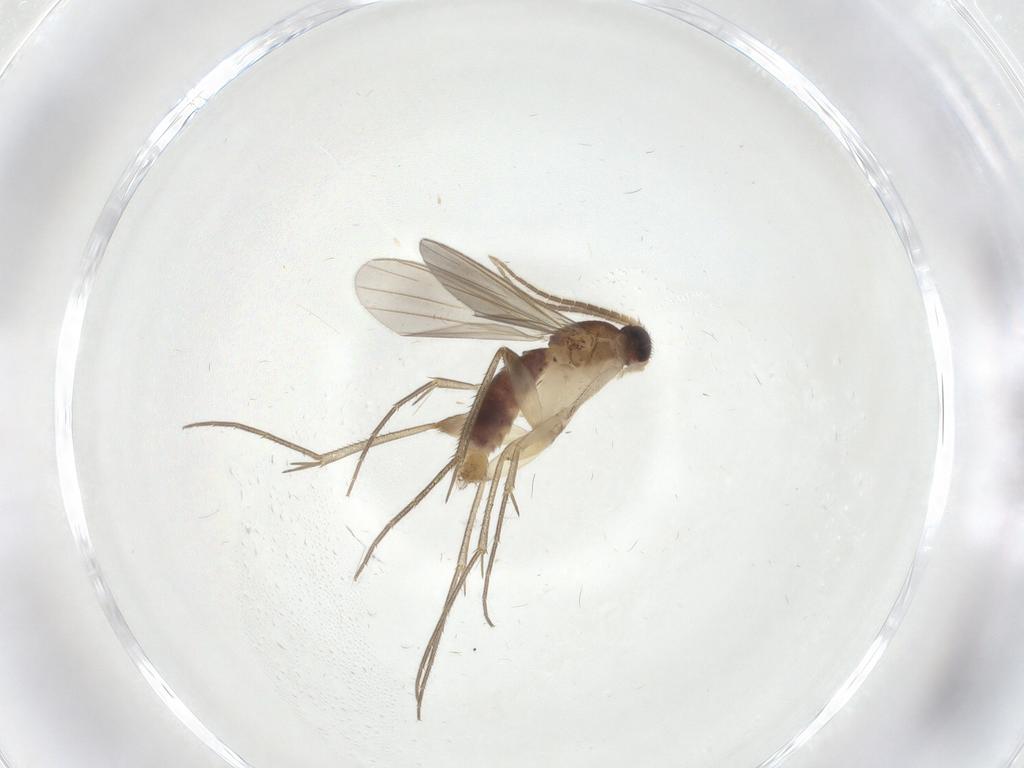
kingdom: Animalia
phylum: Arthropoda
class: Insecta
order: Diptera
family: Mycetophilidae
